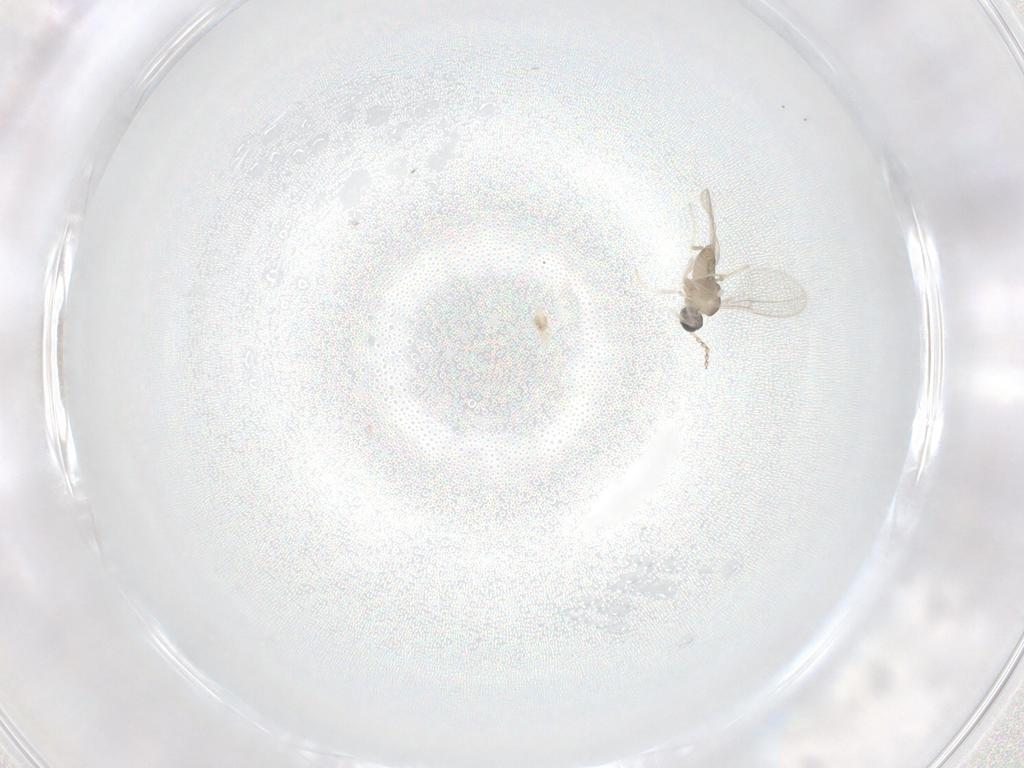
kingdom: Animalia
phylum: Arthropoda
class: Insecta
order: Diptera
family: Cecidomyiidae
